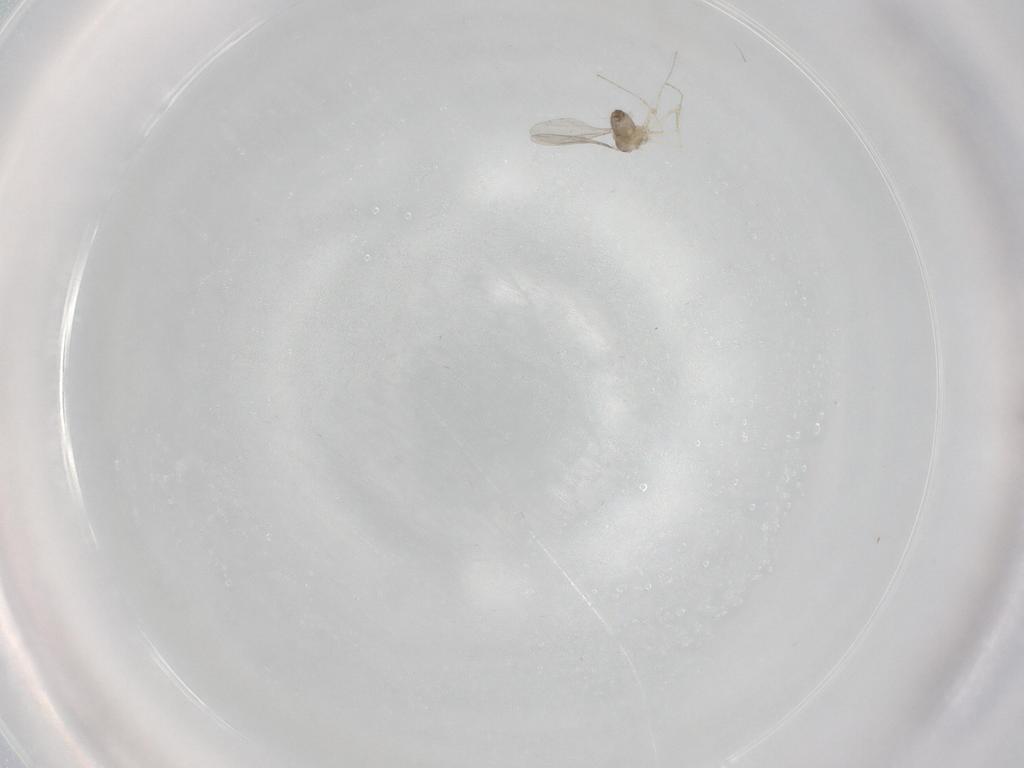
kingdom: Animalia
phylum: Arthropoda
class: Insecta
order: Diptera
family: Cecidomyiidae
